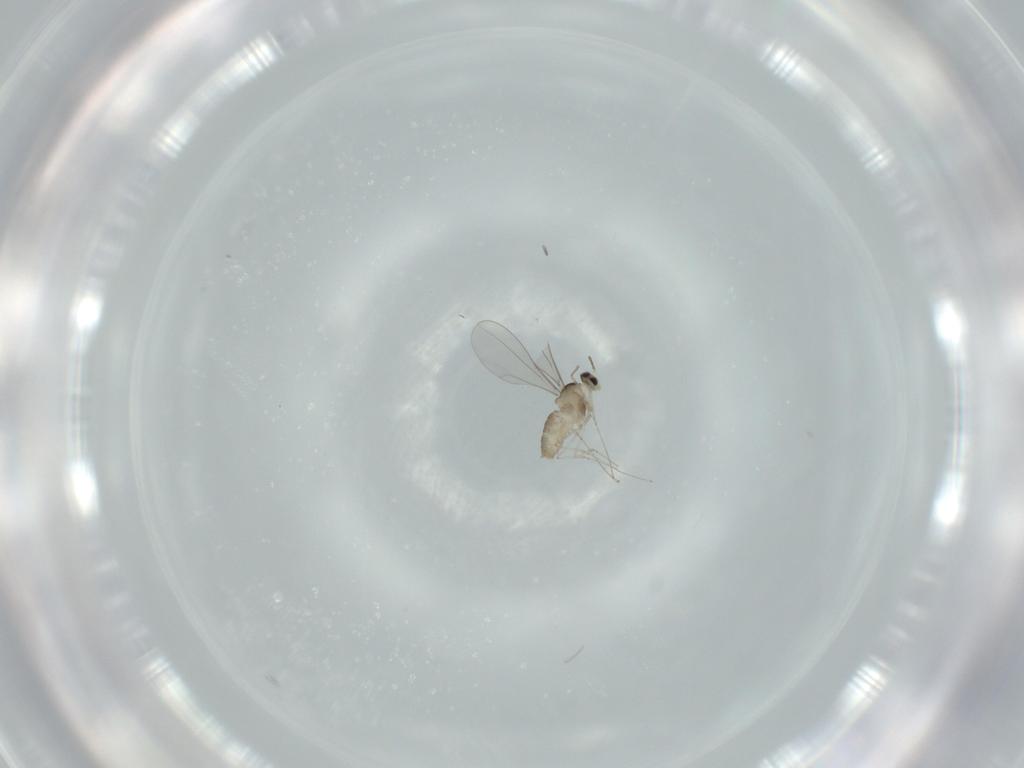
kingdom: Animalia
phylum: Arthropoda
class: Insecta
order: Diptera
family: Cecidomyiidae
